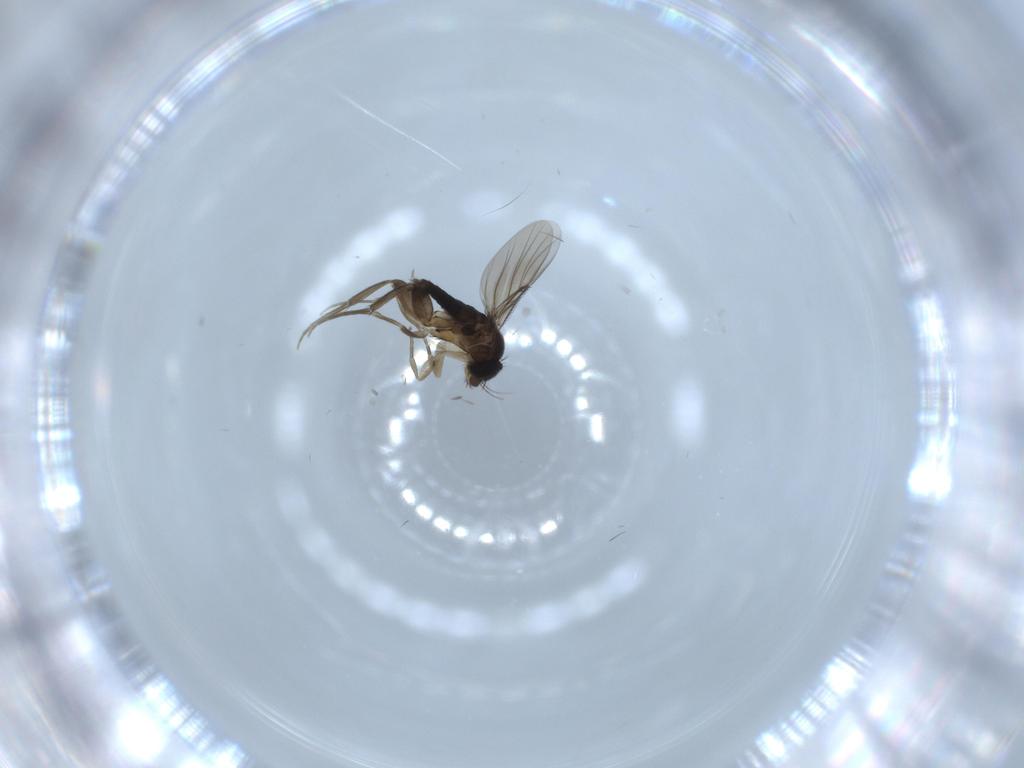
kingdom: Animalia
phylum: Arthropoda
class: Insecta
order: Diptera
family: Phoridae
